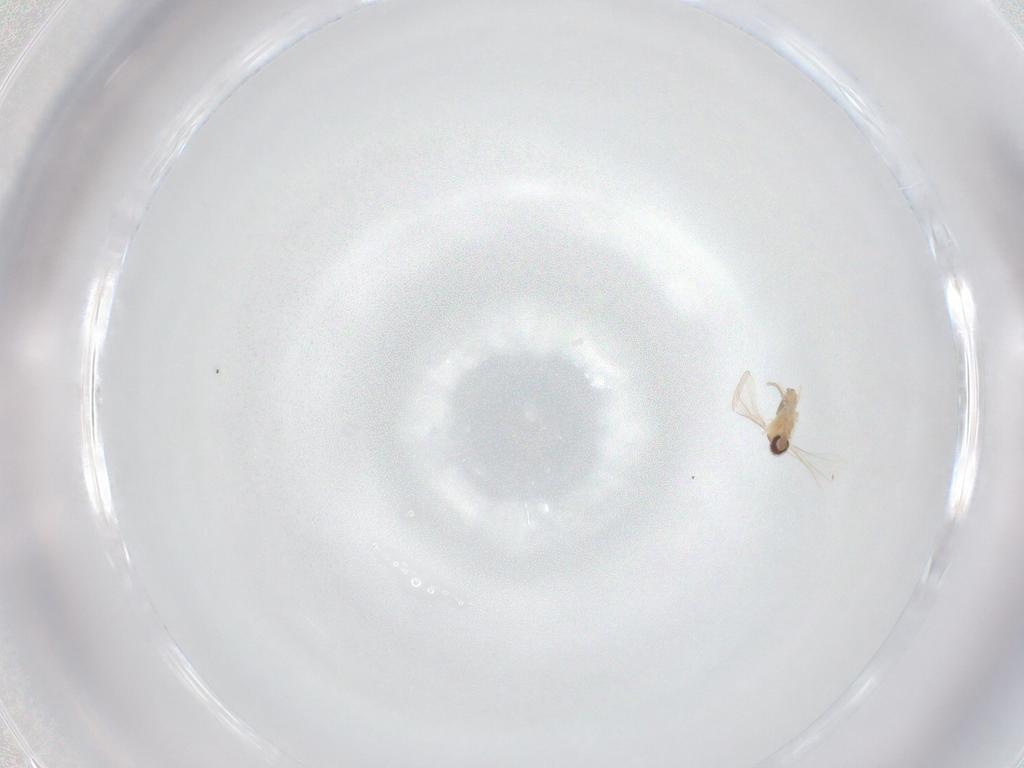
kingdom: Animalia
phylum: Arthropoda
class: Insecta
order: Diptera
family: Cecidomyiidae
